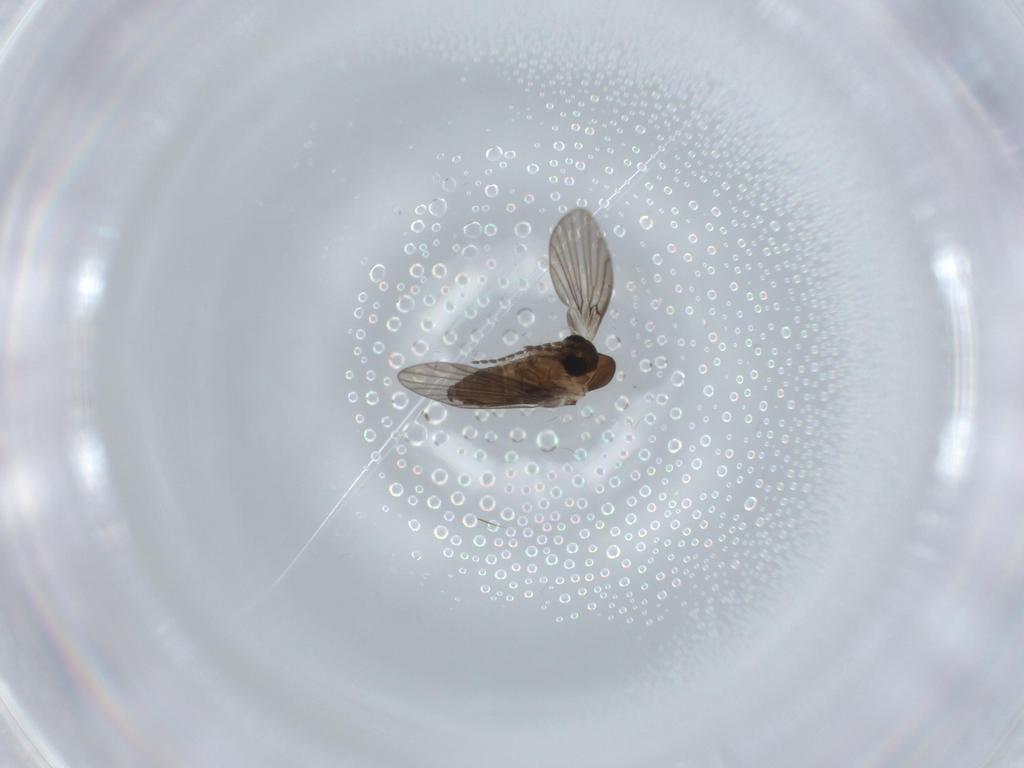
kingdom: Animalia
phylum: Arthropoda
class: Insecta
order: Diptera
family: Psychodidae
